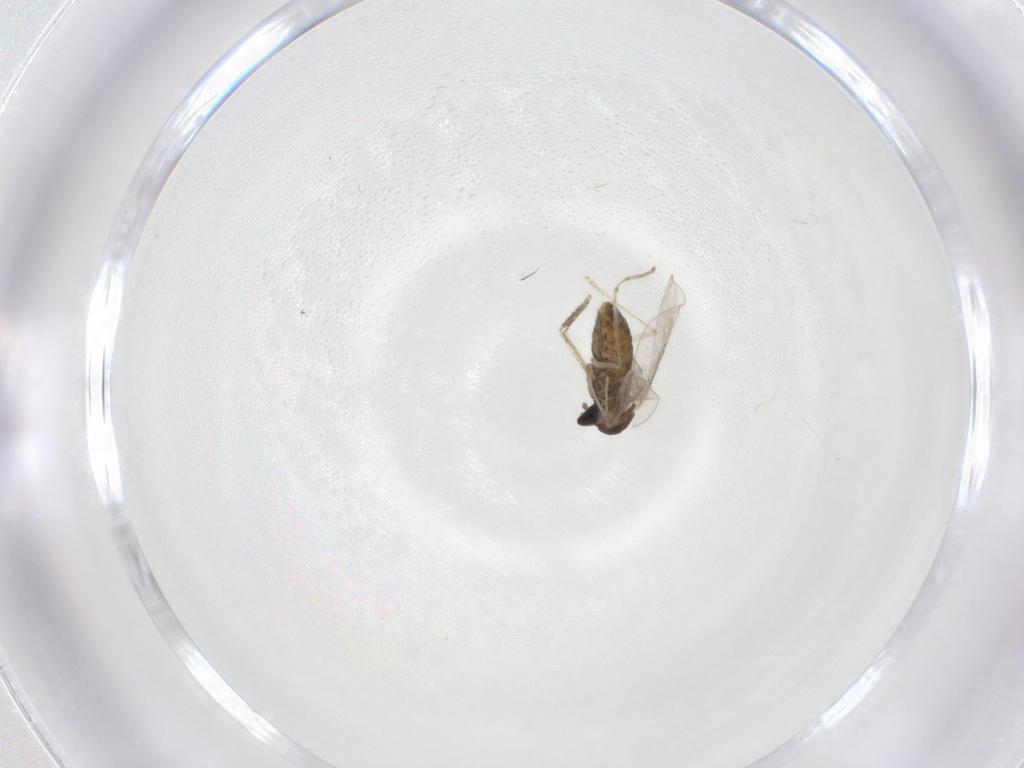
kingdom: Animalia
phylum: Arthropoda
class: Insecta
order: Diptera
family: Cecidomyiidae
